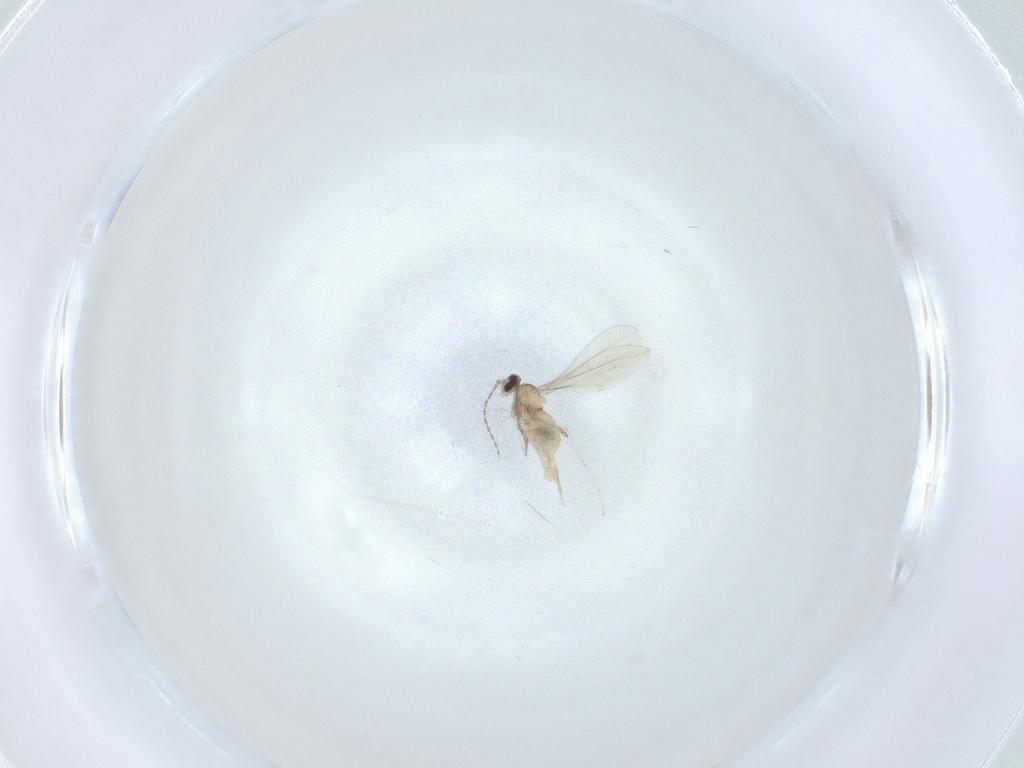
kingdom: Animalia
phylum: Arthropoda
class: Insecta
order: Diptera
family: Cecidomyiidae
